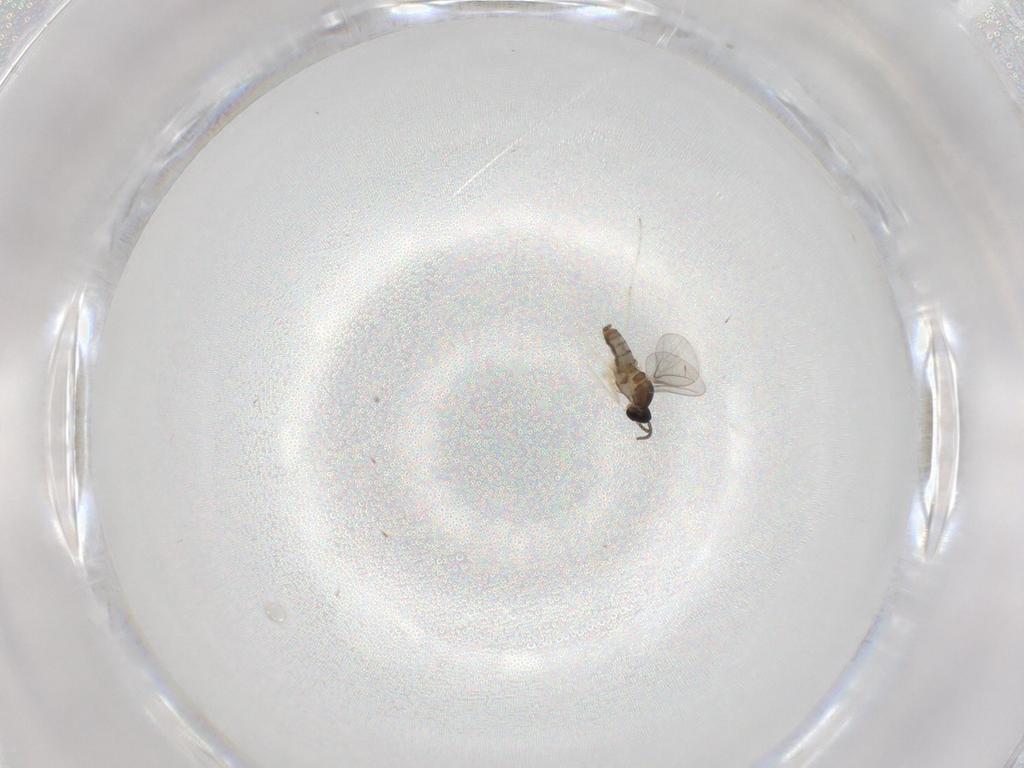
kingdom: Animalia
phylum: Arthropoda
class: Insecta
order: Diptera
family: Cecidomyiidae
